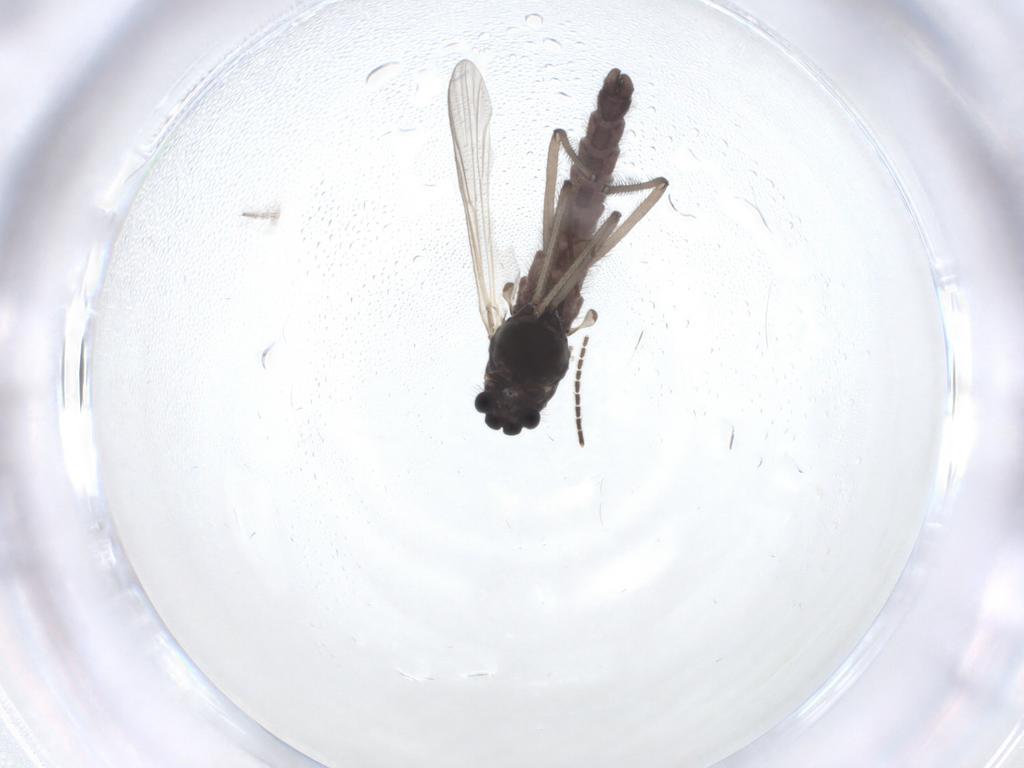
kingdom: Animalia
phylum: Arthropoda
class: Insecta
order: Diptera
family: Chironomidae
